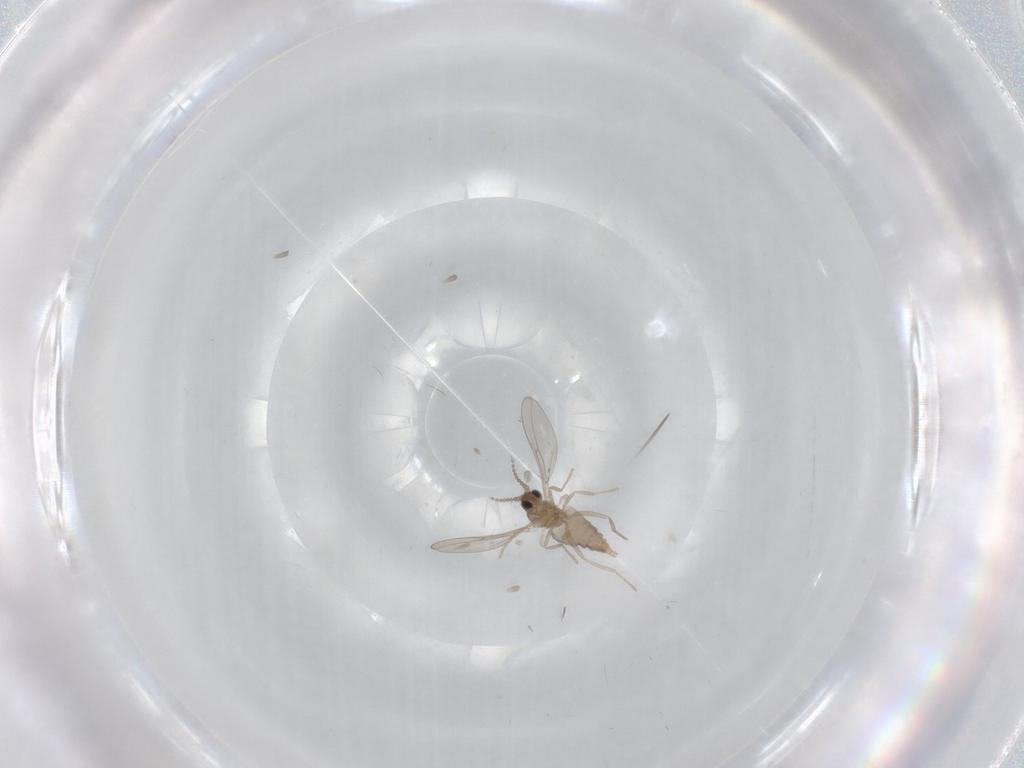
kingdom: Animalia
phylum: Arthropoda
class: Insecta
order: Diptera
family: Cecidomyiidae
